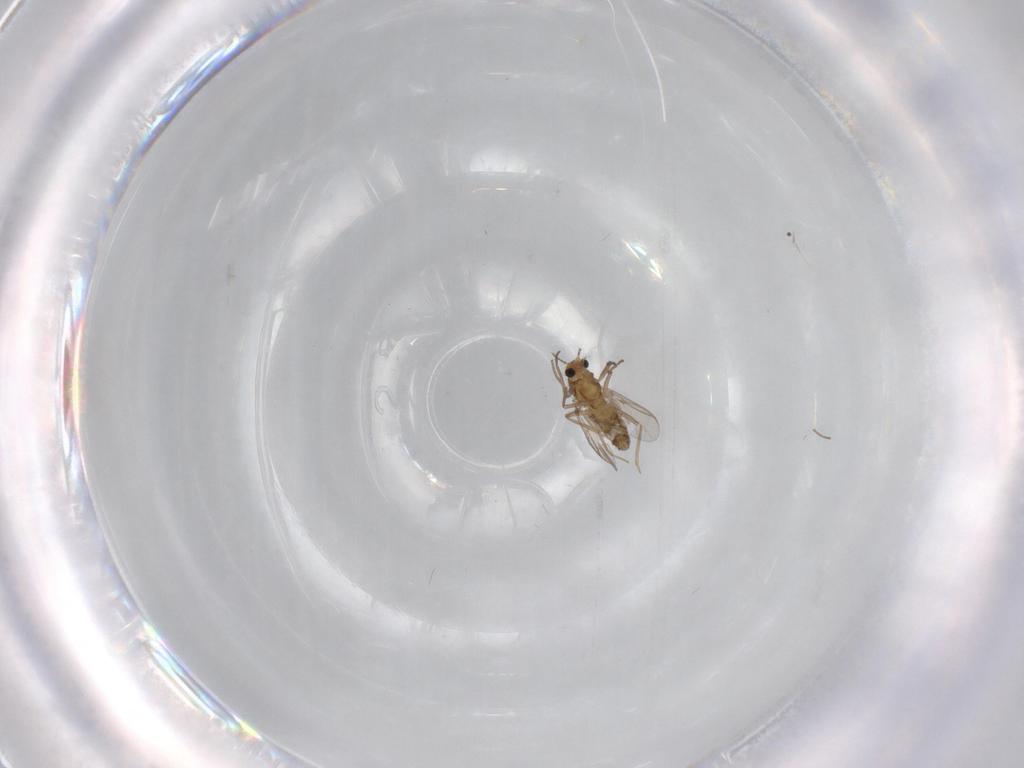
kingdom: Animalia
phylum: Arthropoda
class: Insecta
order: Diptera
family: Chironomidae
